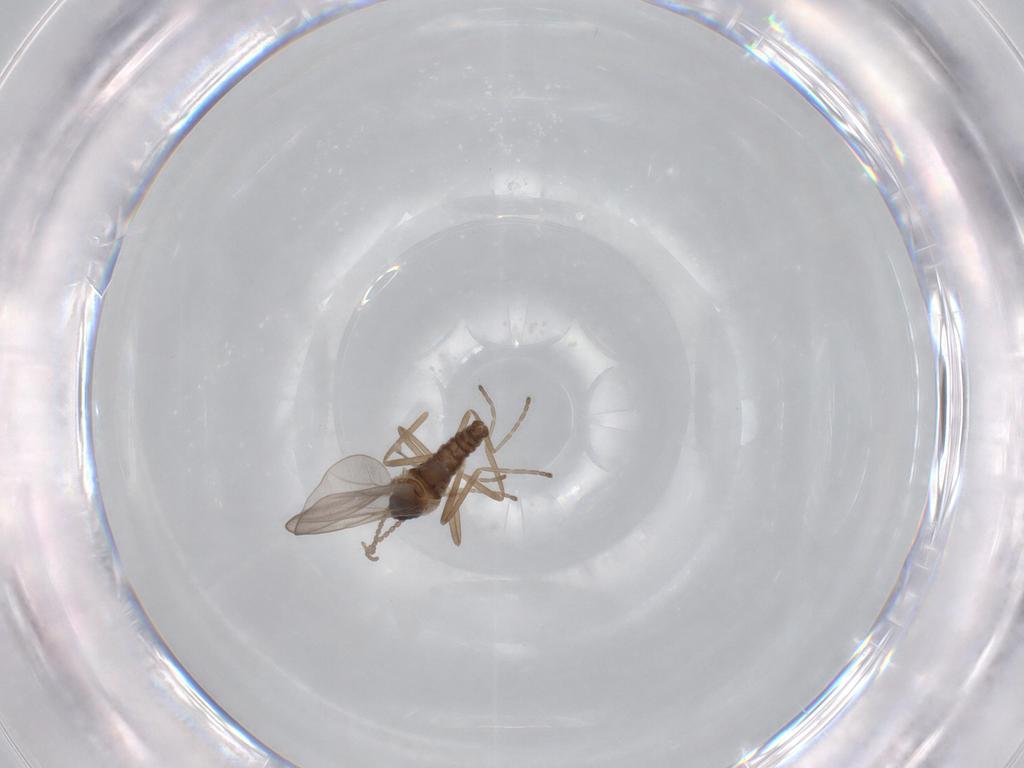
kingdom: Animalia
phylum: Arthropoda
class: Insecta
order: Diptera
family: Cecidomyiidae
